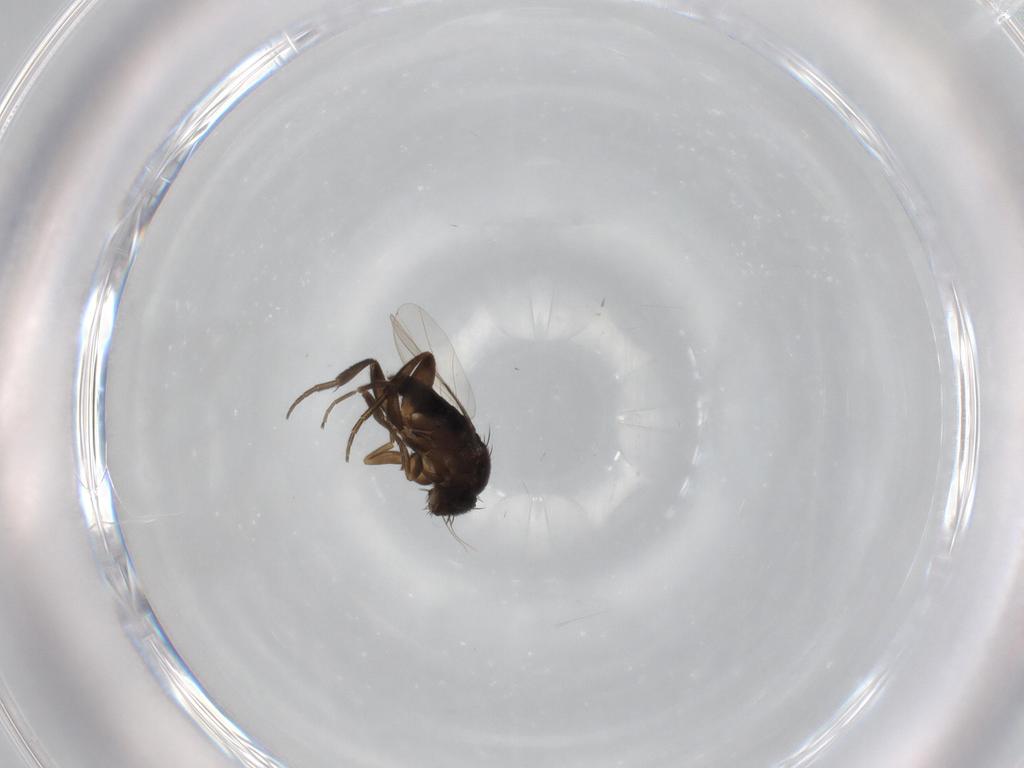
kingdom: Animalia
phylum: Arthropoda
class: Insecta
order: Diptera
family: Phoridae
